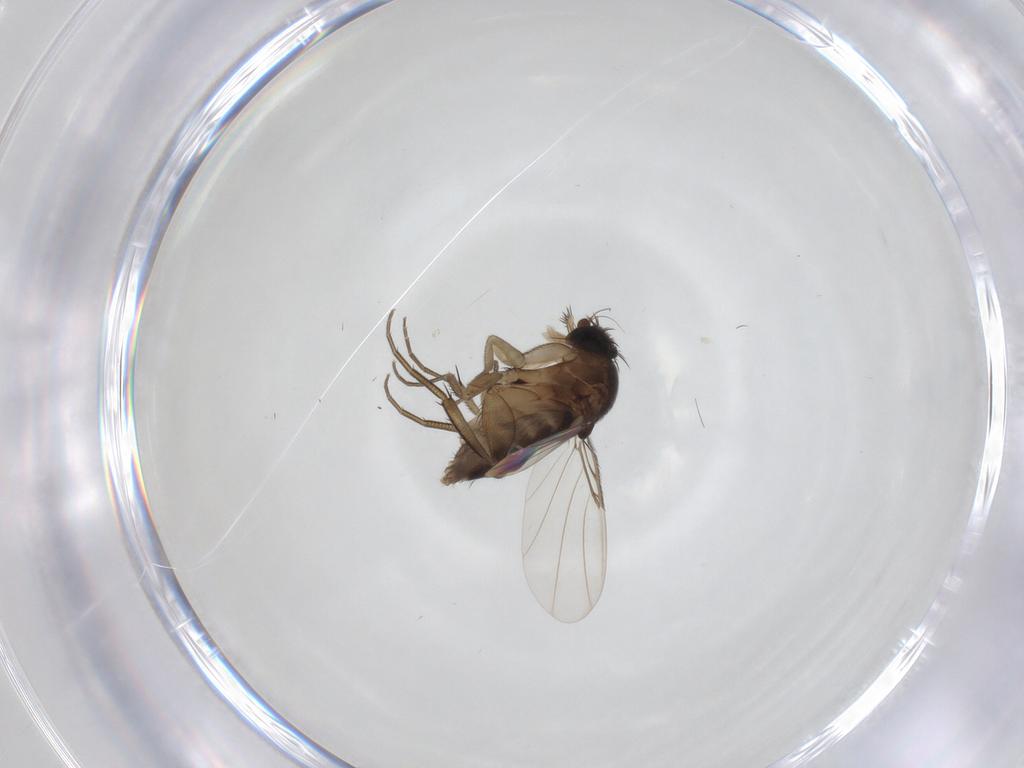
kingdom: Animalia
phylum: Arthropoda
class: Insecta
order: Diptera
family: Phoridae
